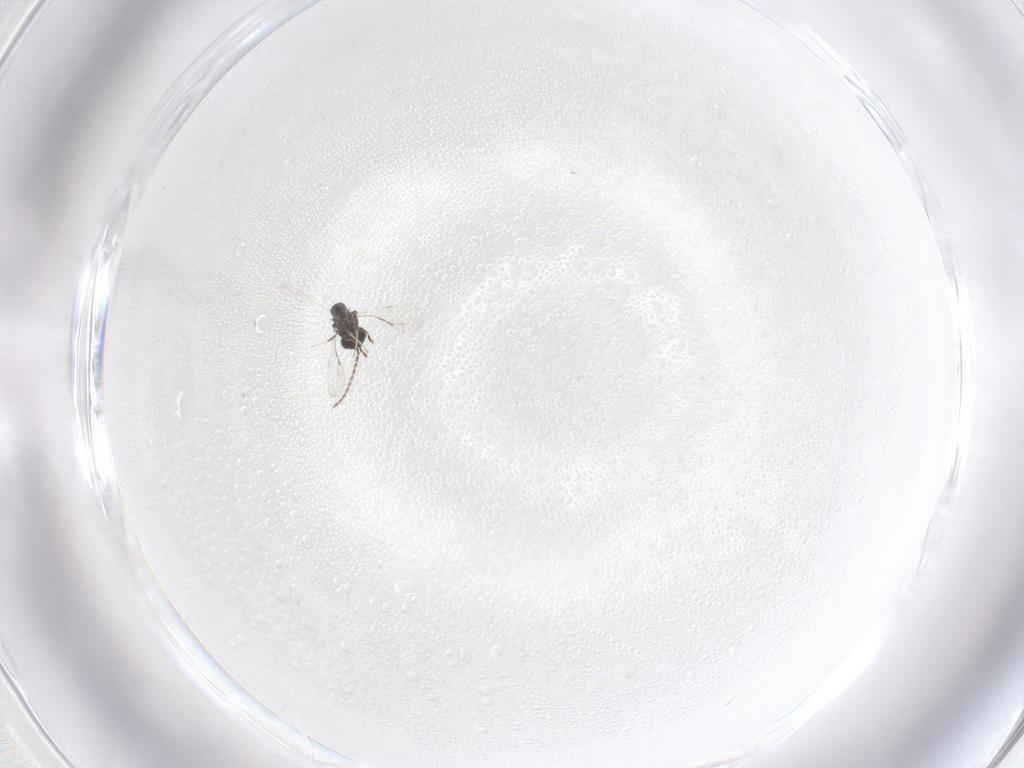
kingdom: Animalia
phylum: Arthropoda
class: Insecta
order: Hymenoptera
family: Ceraphronidae
